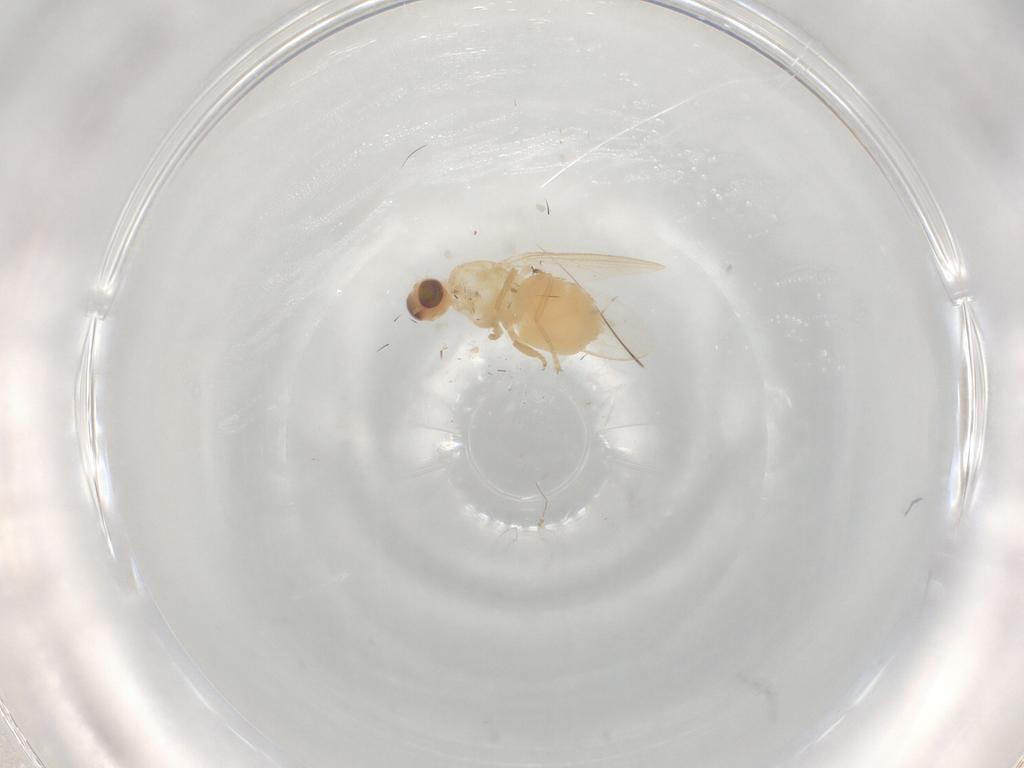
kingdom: Animalia
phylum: Arthropoda
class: Insecta
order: Diptera
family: Chyromyidae
